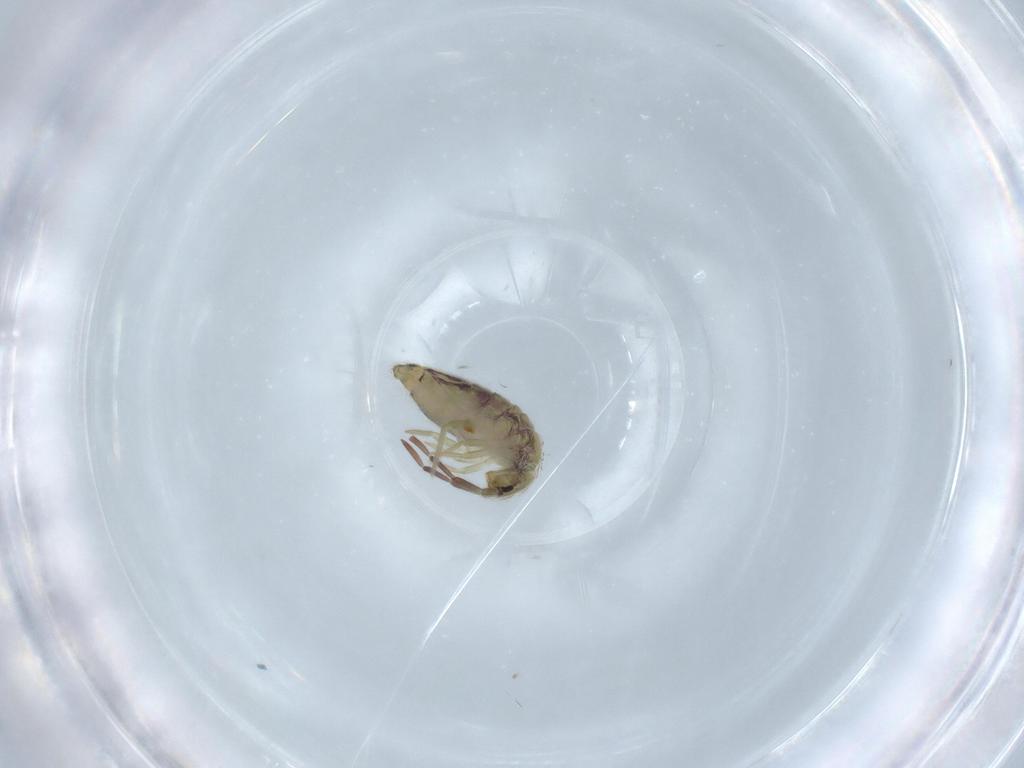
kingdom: Animalia
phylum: Arthropoda
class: Collembola
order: Entomobryomorpha
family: Entomobryidae
